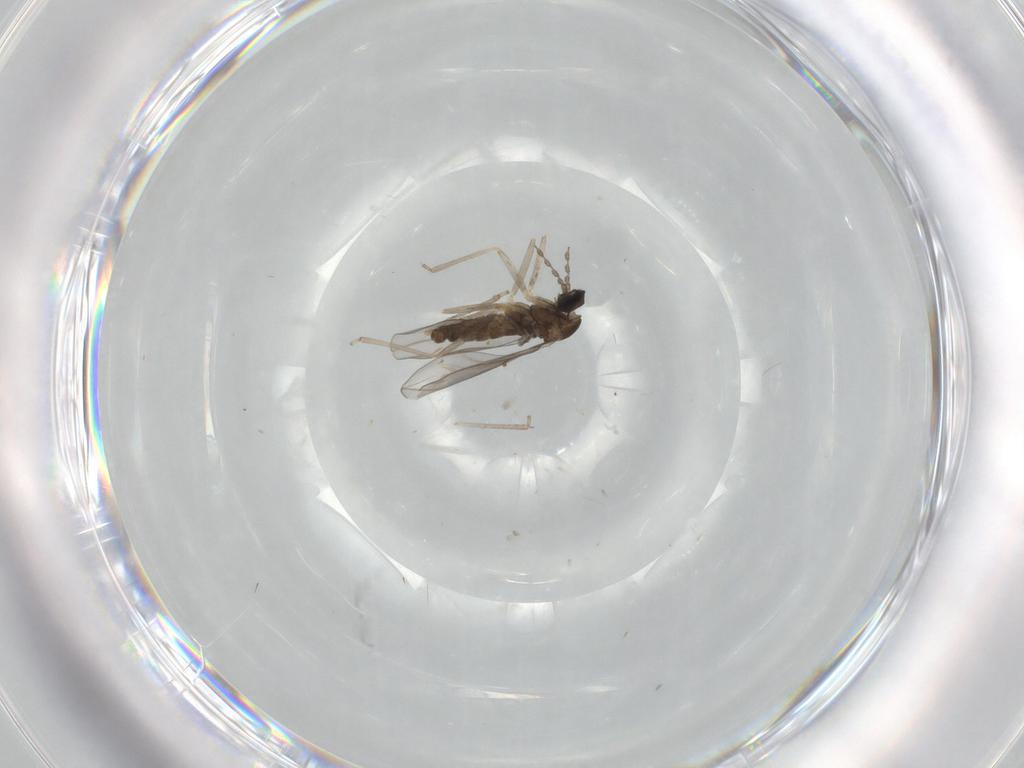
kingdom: Animalia
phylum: Arthropoda
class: Insecta
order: Diptera
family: Cecidomyiidae
